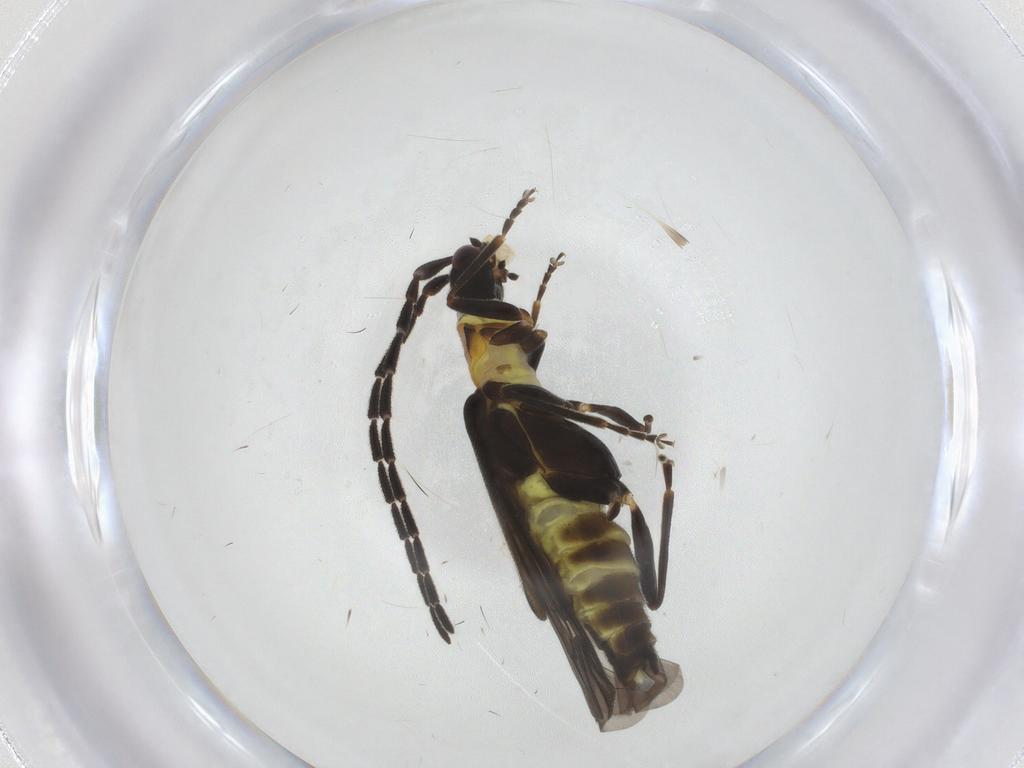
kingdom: Animalia
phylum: Arthropoda
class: Insecta
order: Coleoptera
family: Cantharidae
